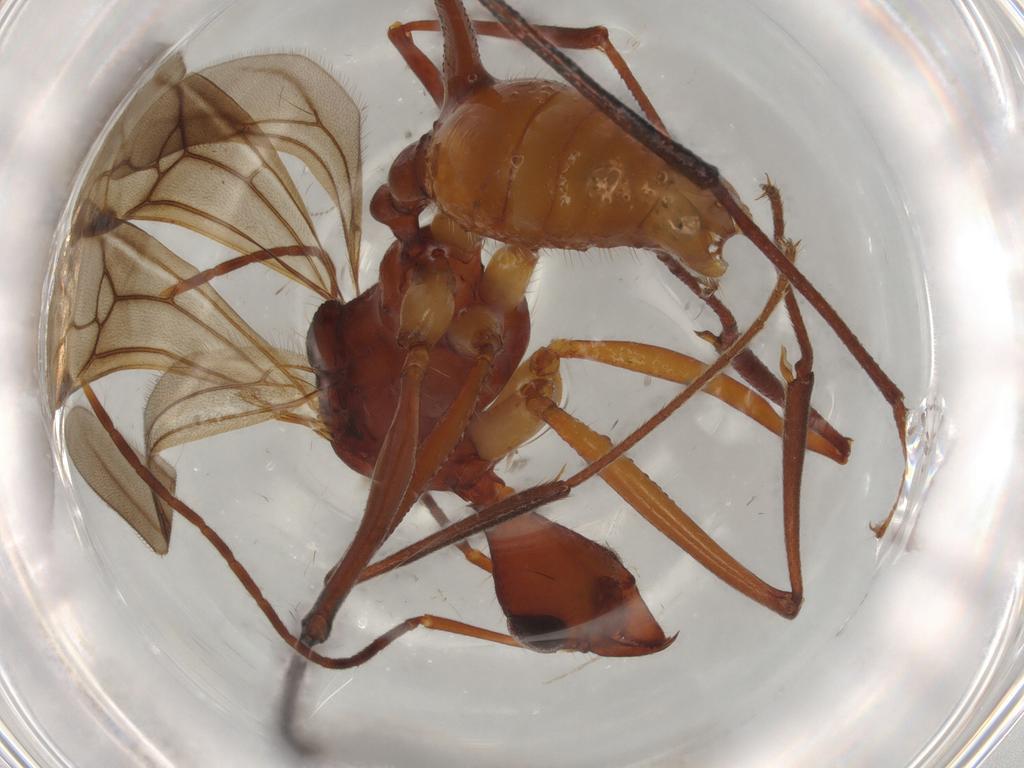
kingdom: Animalia
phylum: Arthropoda
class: Insecta
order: Hymenoptera
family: Formicidae
